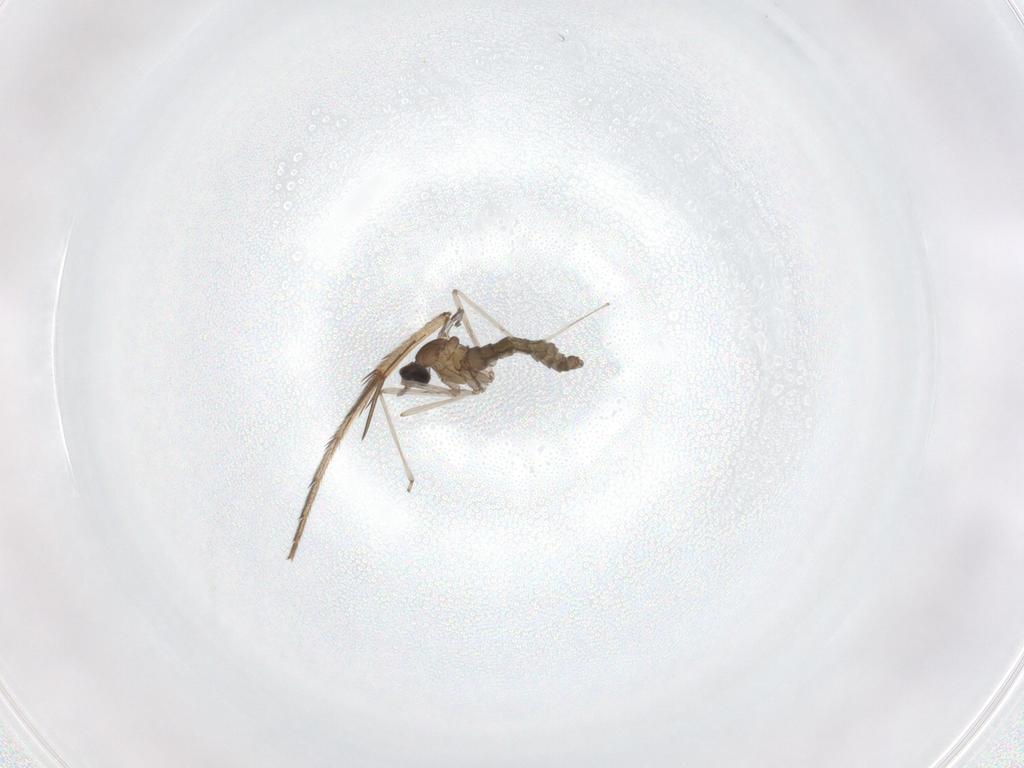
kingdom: Animalia
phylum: Arthropoda
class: Insecta
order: Diptera
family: Mycetophilidae
